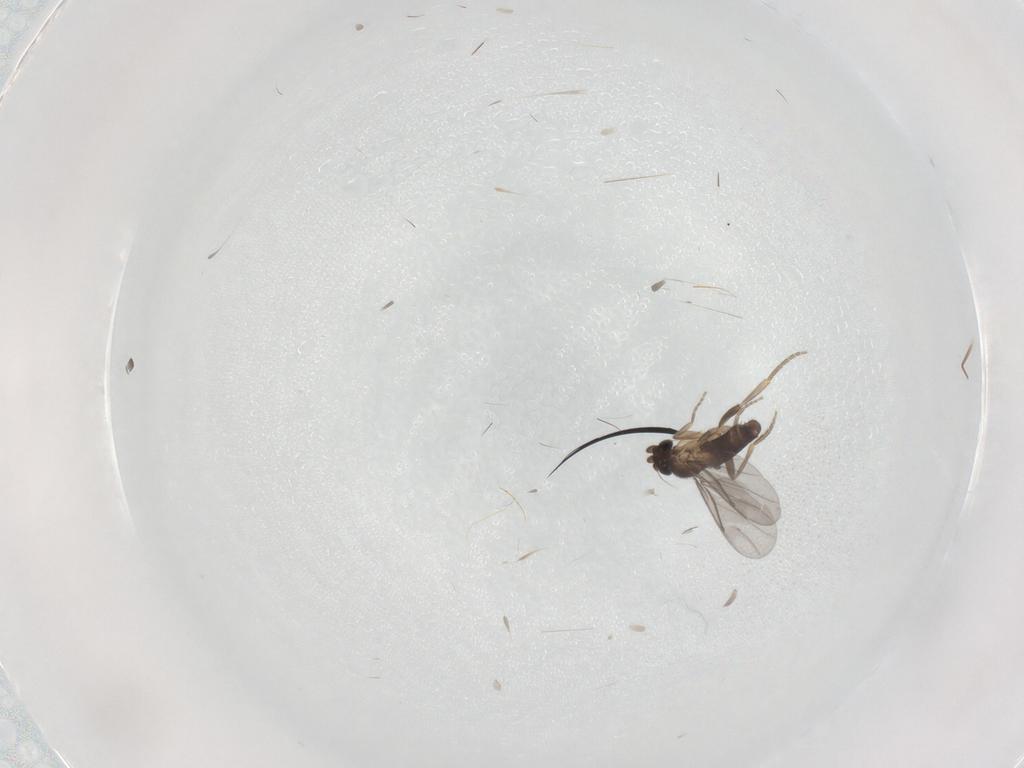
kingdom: Animalia
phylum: Arthropoda
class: Insecta
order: Diptera
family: Phoridae
